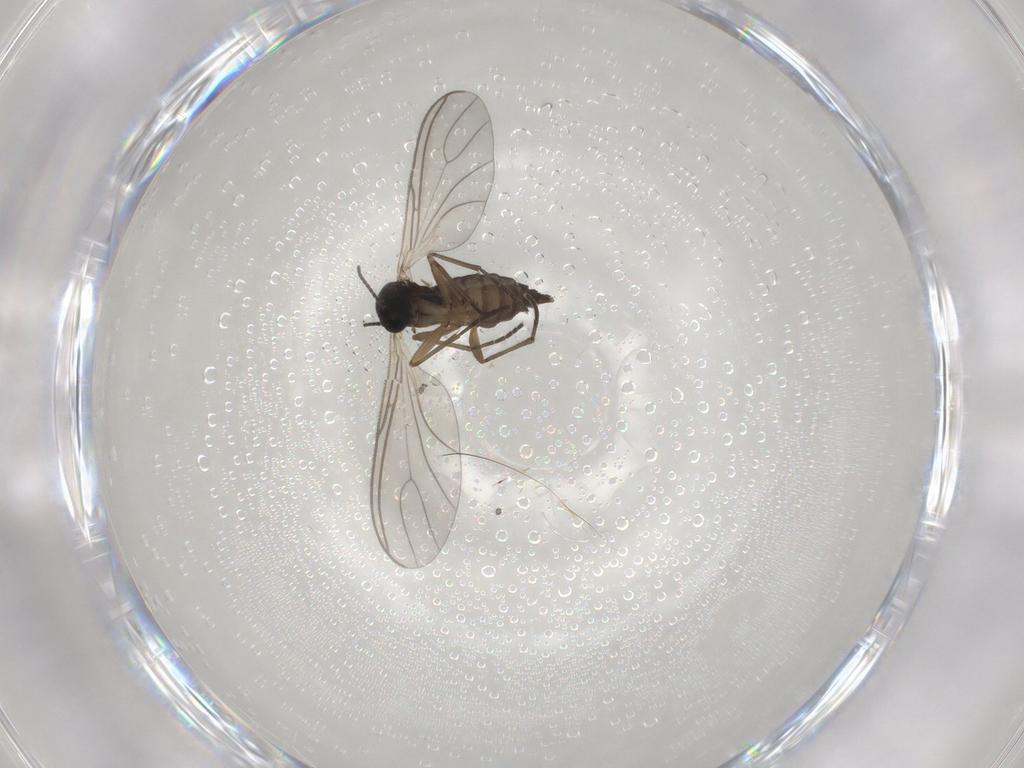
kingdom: Animalia
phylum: Arthropoda
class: Insecta
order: Diptera
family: Sciaridae
